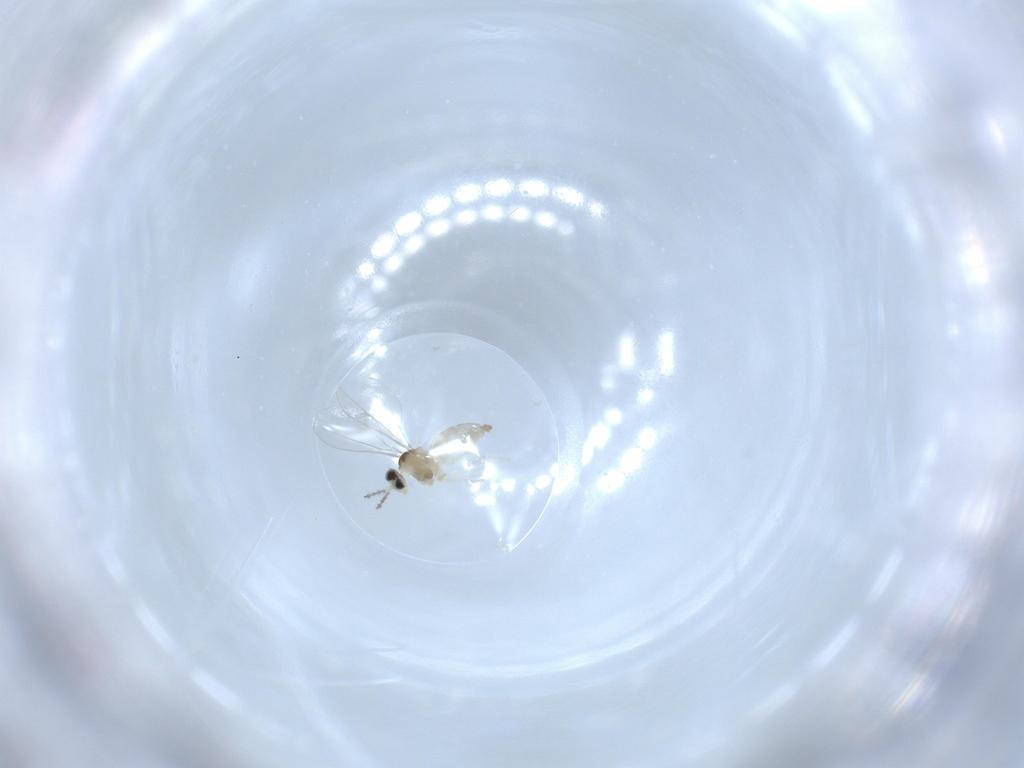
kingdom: Animalia
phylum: Arthropoda
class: Insecta
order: Diptera
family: Cecidomyiidae
